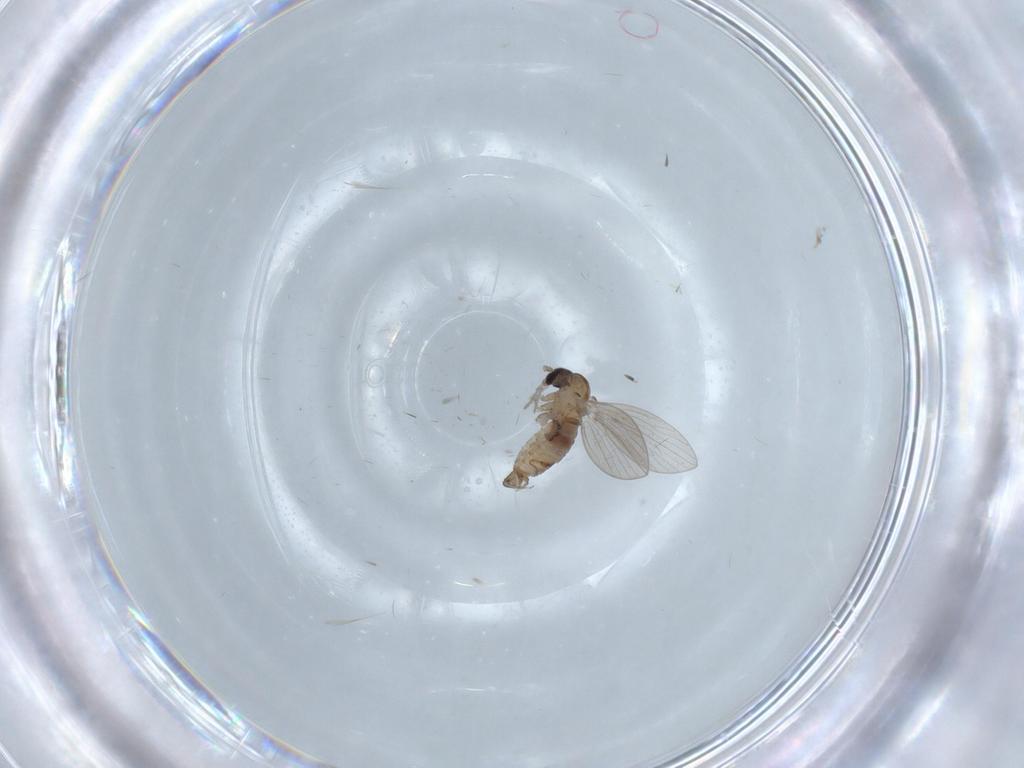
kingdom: Animalia
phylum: Arthropoda
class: Insecta
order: Diptera
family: Psychodidae
